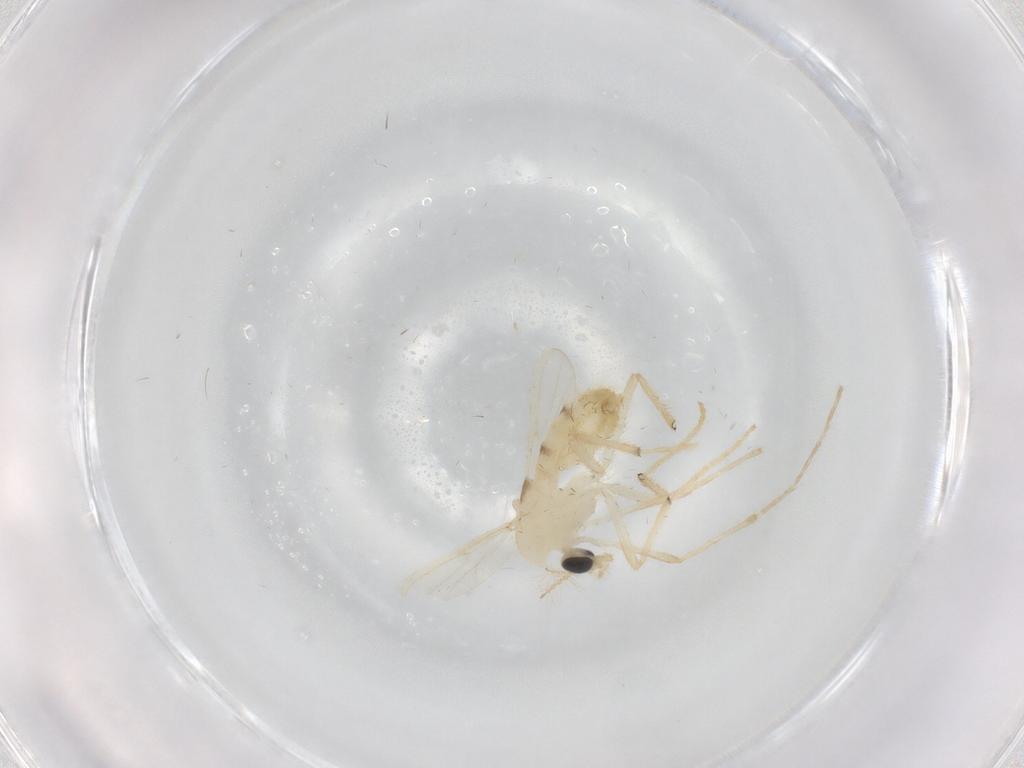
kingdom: Animalia
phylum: Arthropoda
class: Insecta
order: Diptera
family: Chironomidae
